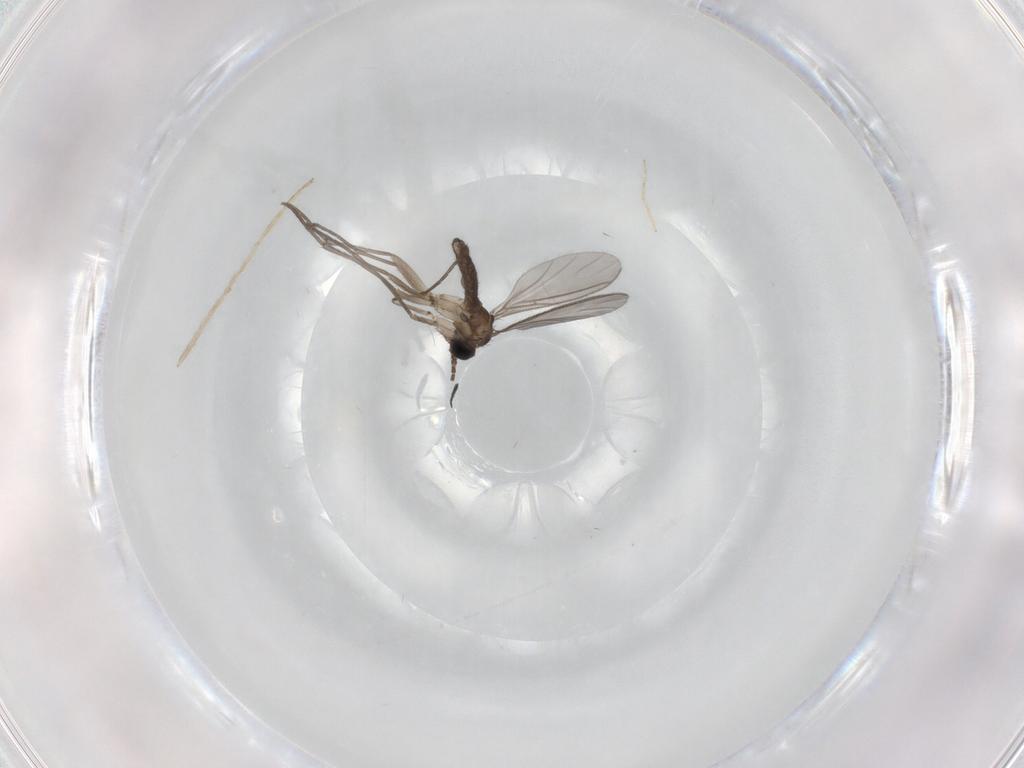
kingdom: Animalia
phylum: Arthropoda
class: Insecta
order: Diptera
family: Sciaridae
